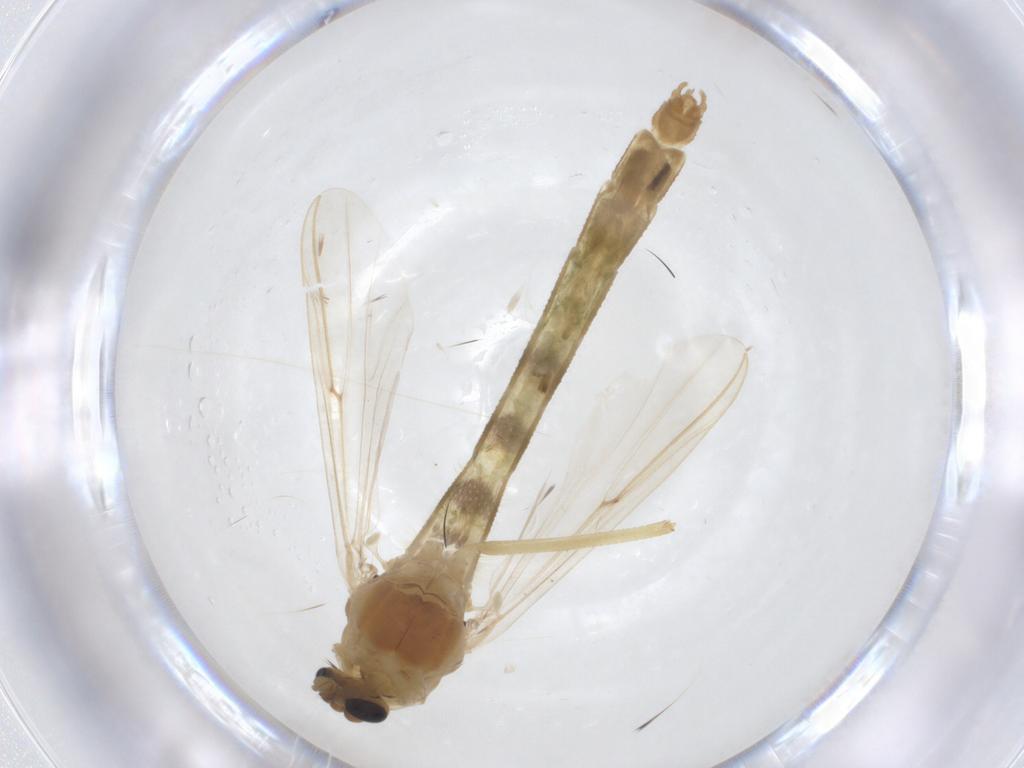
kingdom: Animalia
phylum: Arthropoda
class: Insecta
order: Diptera
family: Chironomidae
